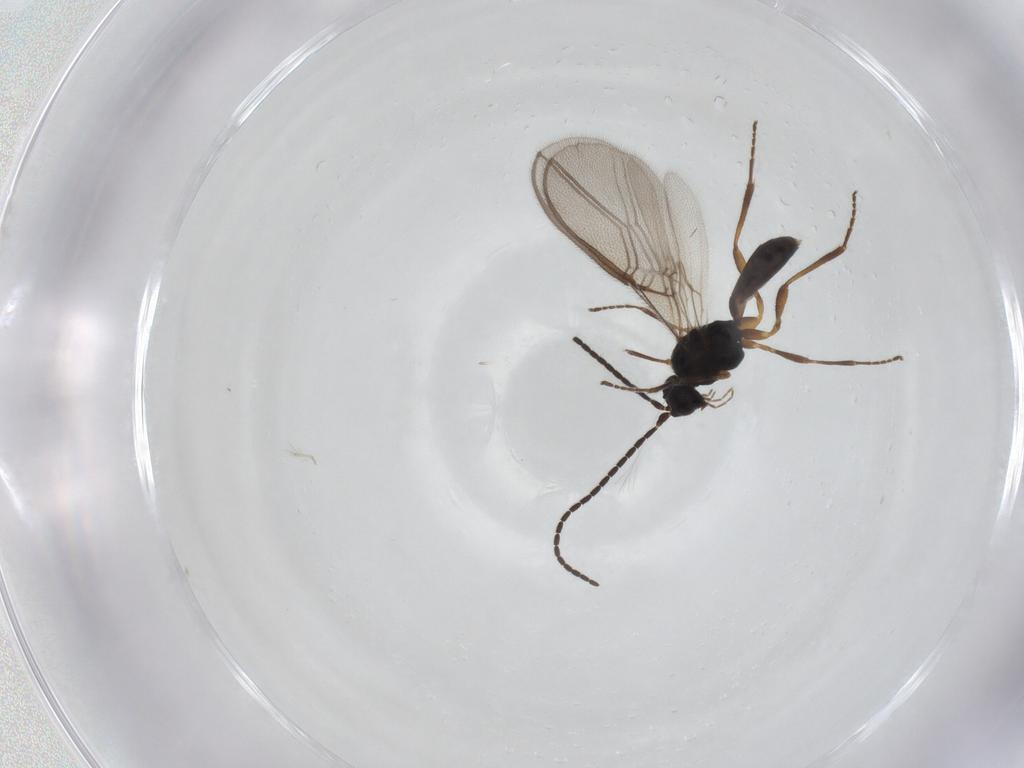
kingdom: Animalia
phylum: Arthropoda
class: Insecta
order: Hymenoptera
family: Braconidae
